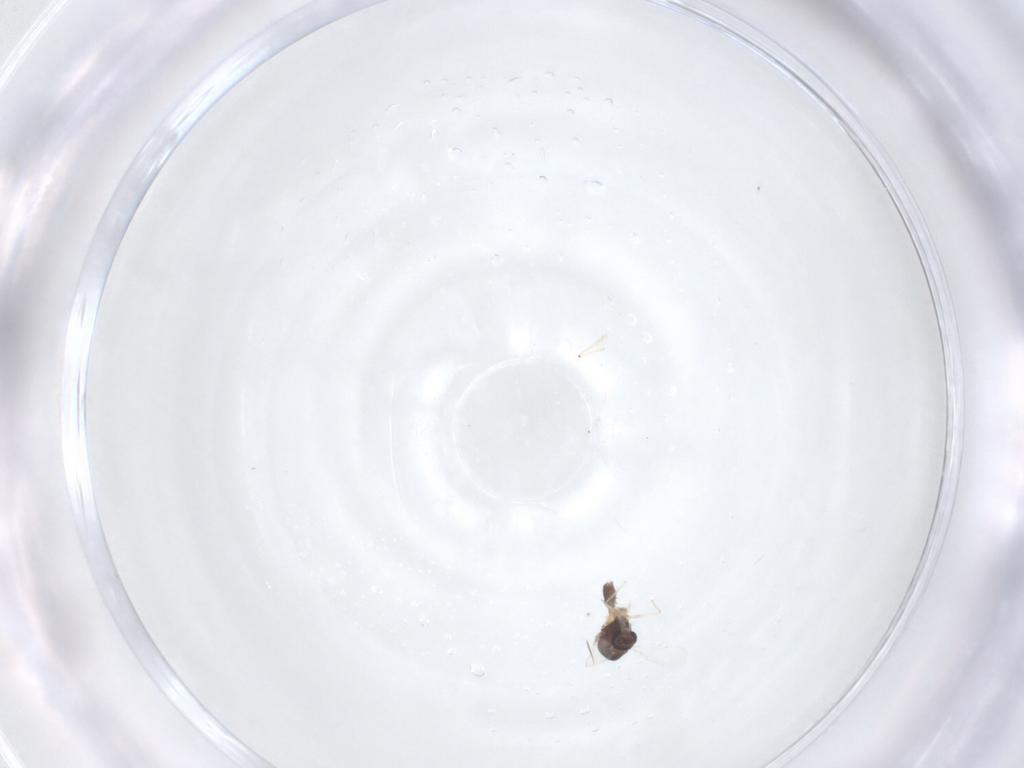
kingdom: Animalia
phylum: Arthropoda
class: Insecta
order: Diptera
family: Chironomidae
